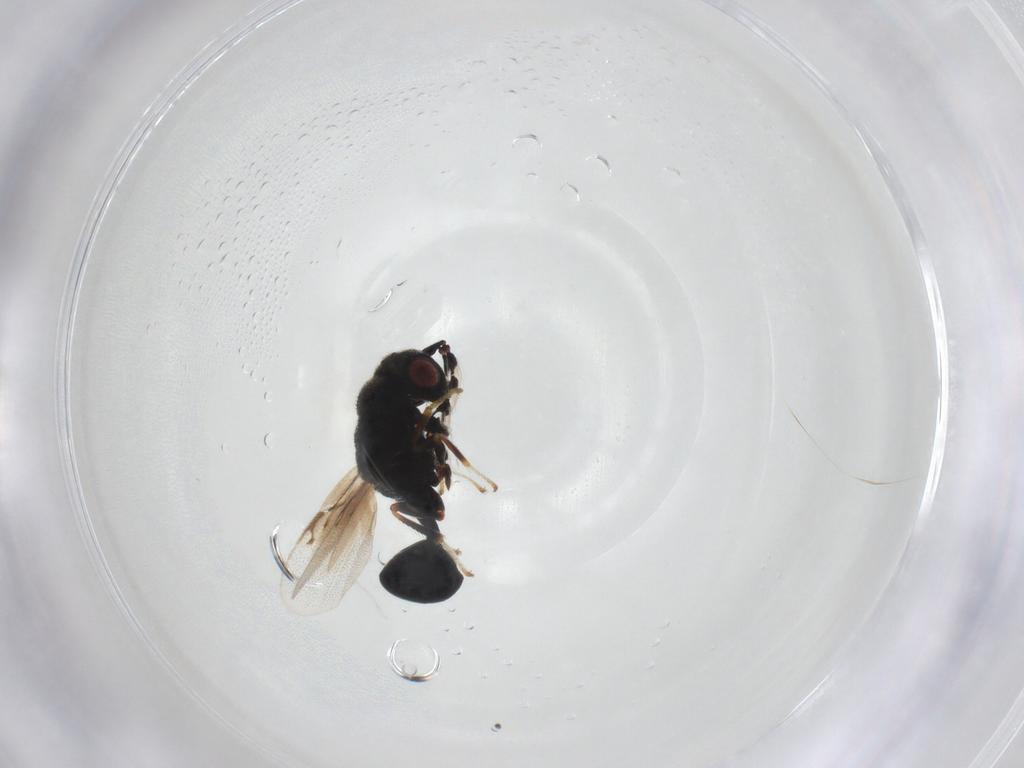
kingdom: Animalia
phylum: Arthropoda
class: Insecta
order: Hymenoptera
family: Eurytomidae
